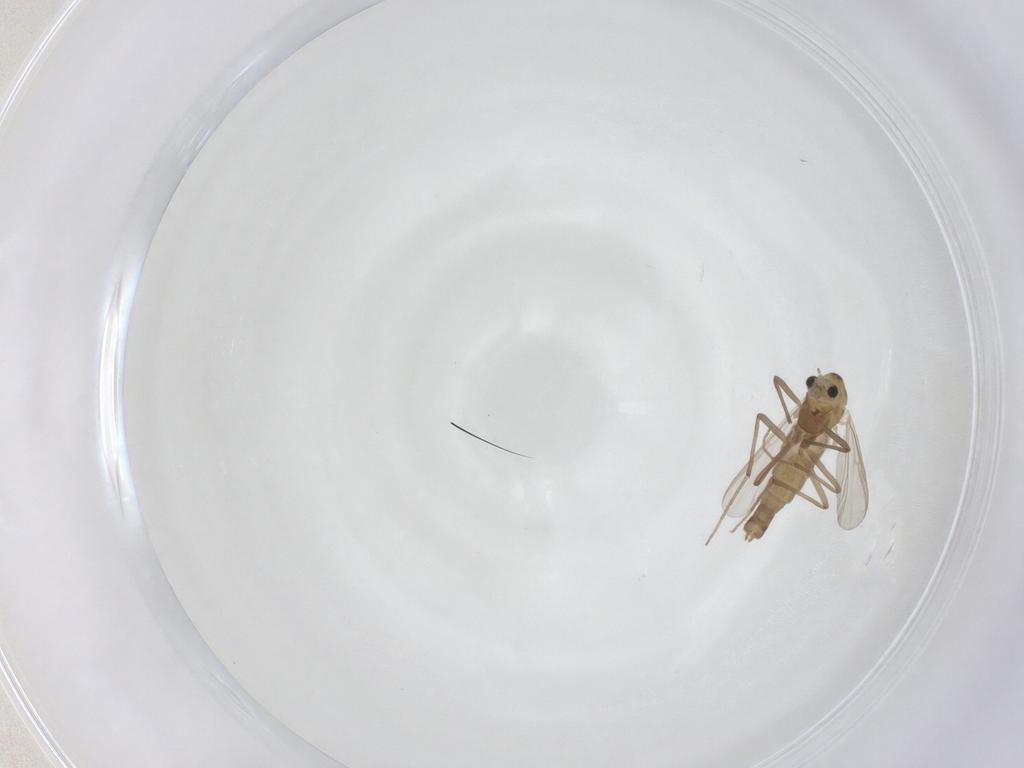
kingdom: Animalia
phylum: Arthropoda
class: Insecta
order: Diptera
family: Chironomidae
